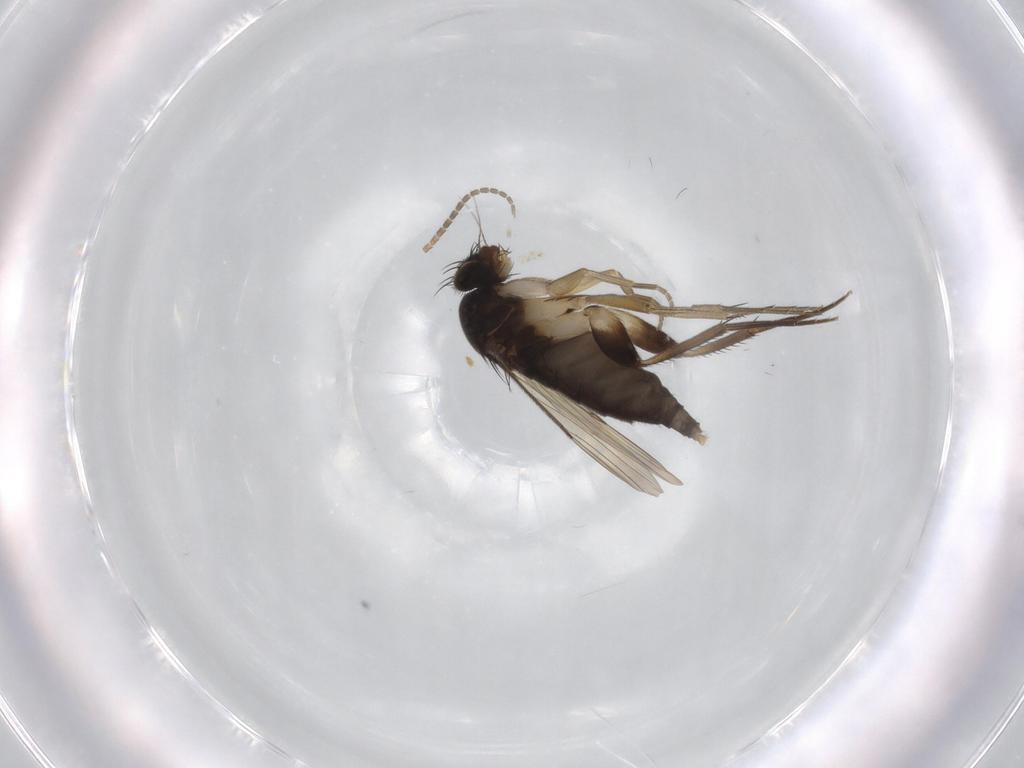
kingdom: Animalia
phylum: Arthropoda
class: Insecta
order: Diptera
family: Phoridae
